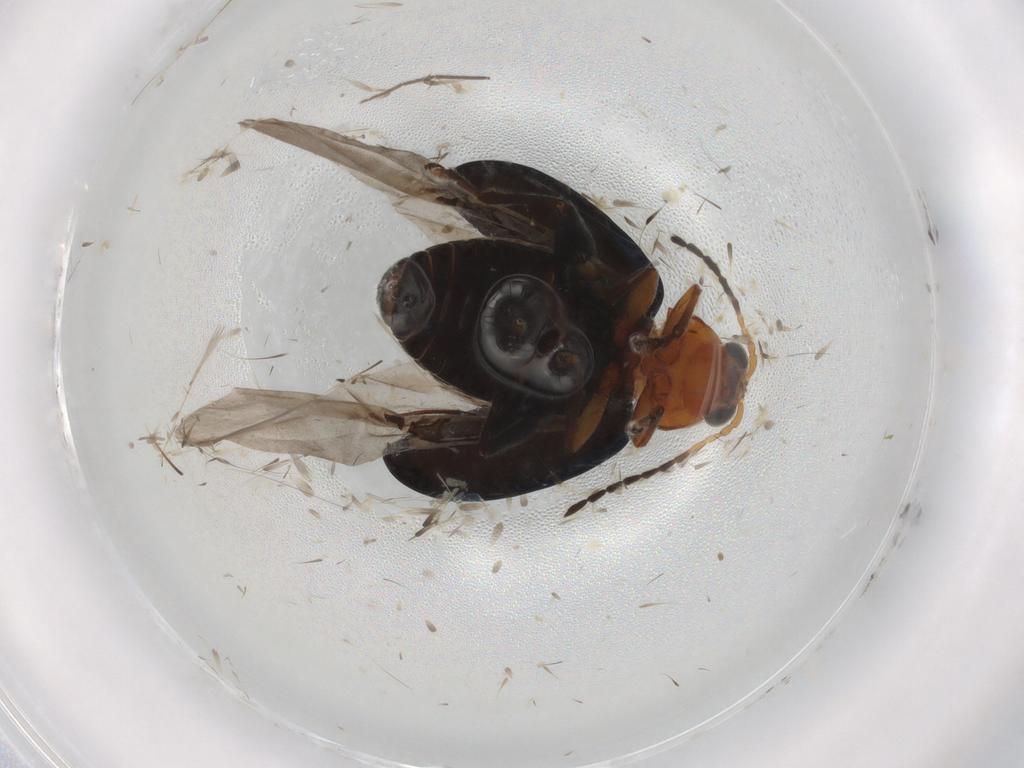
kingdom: Animalia
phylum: Arthropoda
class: Insecta
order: Coleoptera
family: Chrysomelidae
